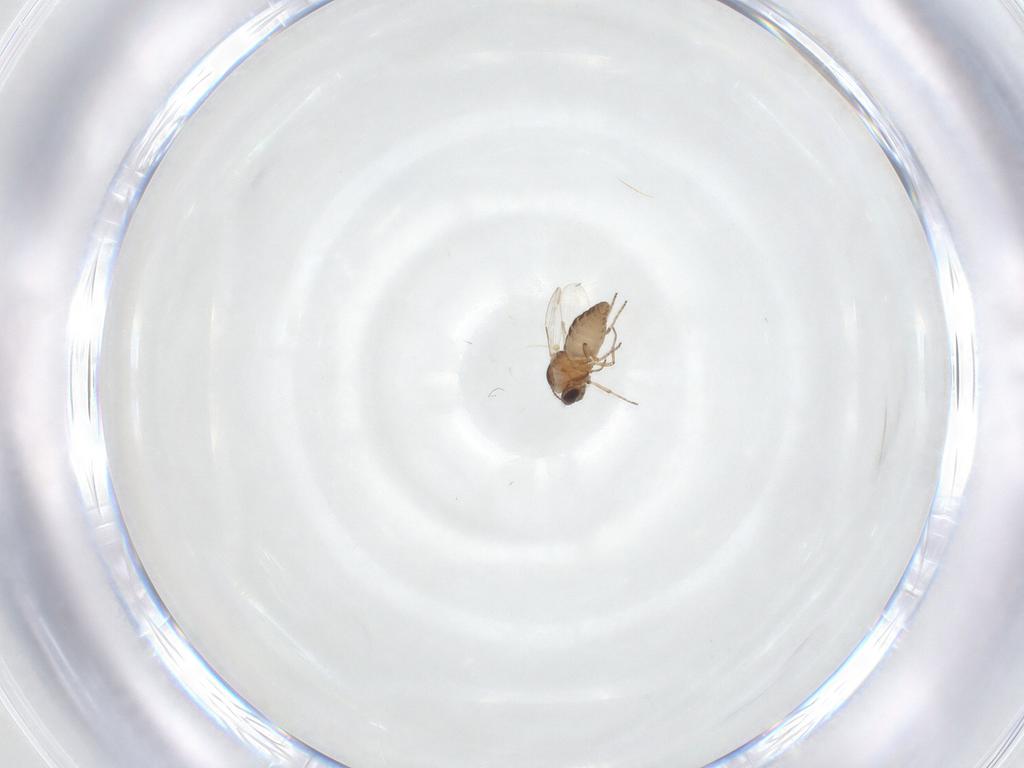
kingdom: Animalia
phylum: Arthropoda
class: Insecta
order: Diptera
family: Ceratopogonidae
